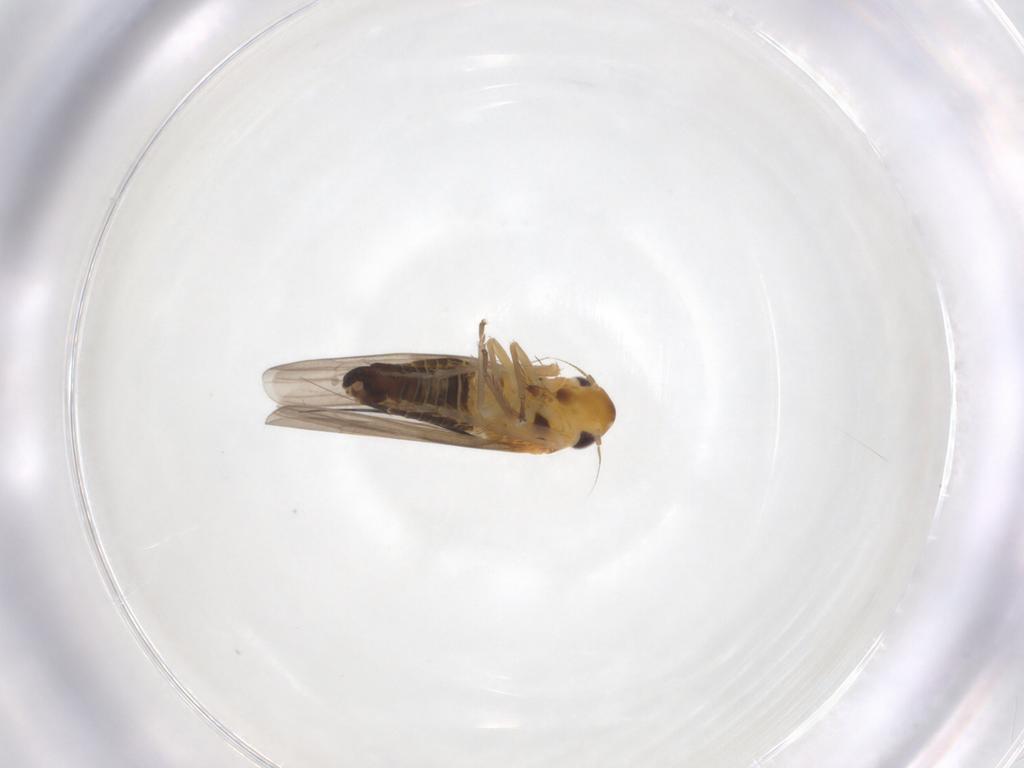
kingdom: Animalia
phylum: Arthropoda
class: Insecta
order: Hemiptera
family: Cicadellidae
